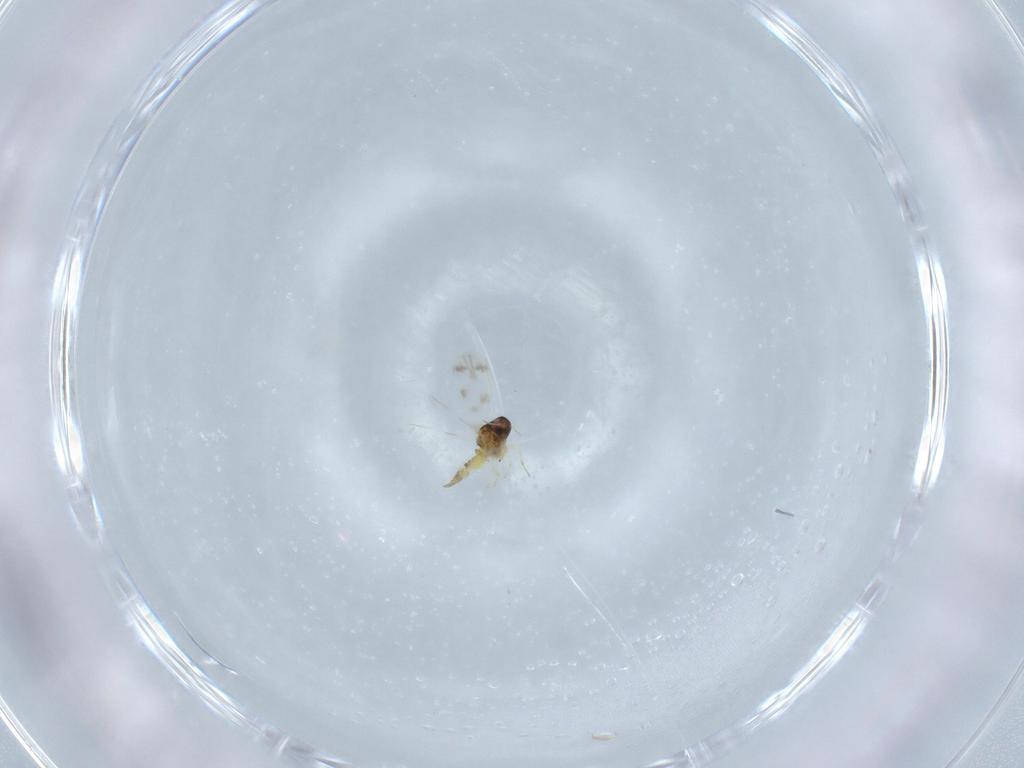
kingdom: Animalia
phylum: Arthropoda
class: Insecta
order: Hemiptera
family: Aleyrodidae
